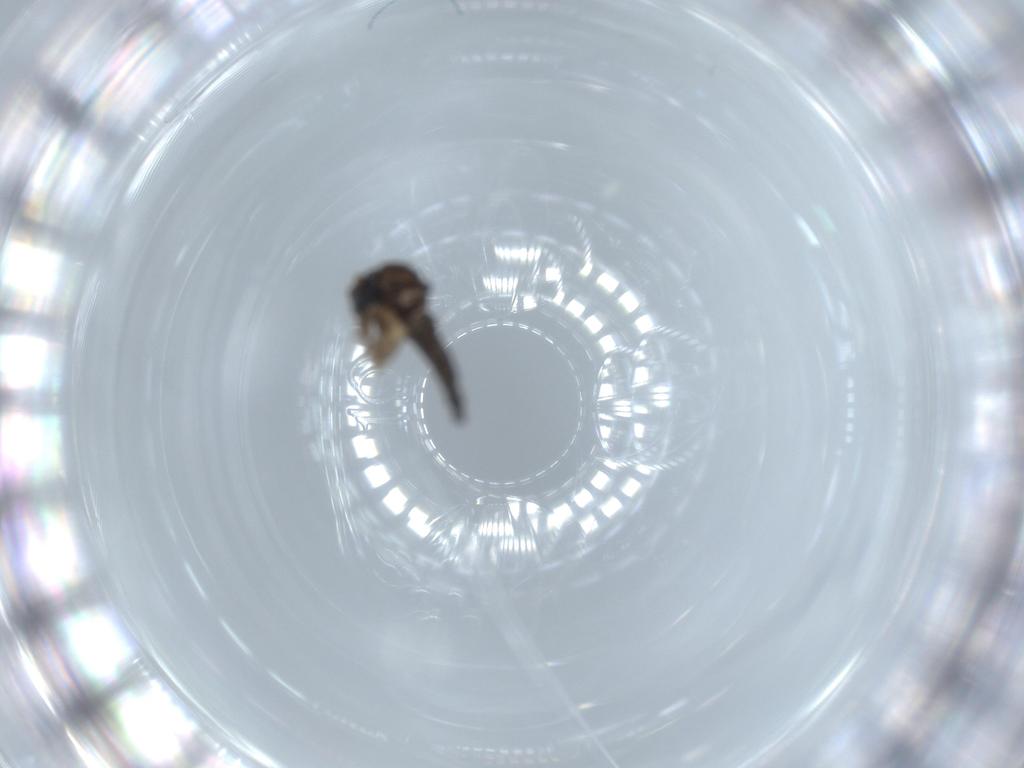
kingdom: Animalia
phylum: Arthropoda
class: Insecta
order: Diptera
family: Sciaridae
